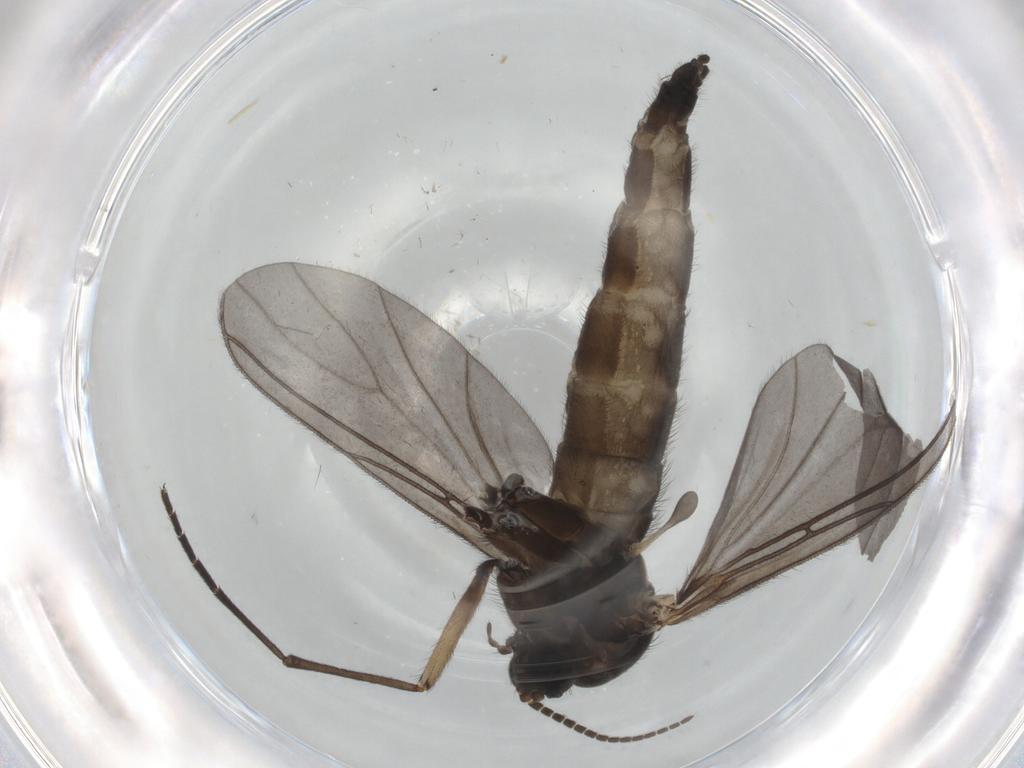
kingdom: Animalia
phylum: Arthropoda
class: Insecta
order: Diptera
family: Sciaridae
